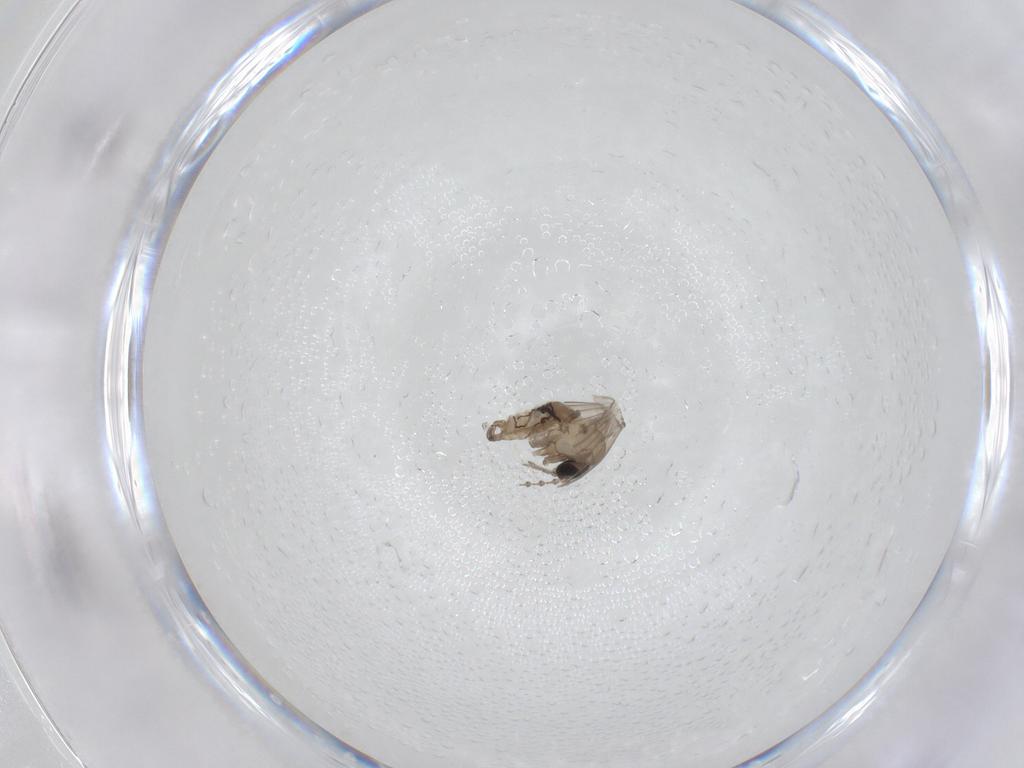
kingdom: Animalia
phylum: Arthropoda
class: Insecta
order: Diptera
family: Psychodidae
